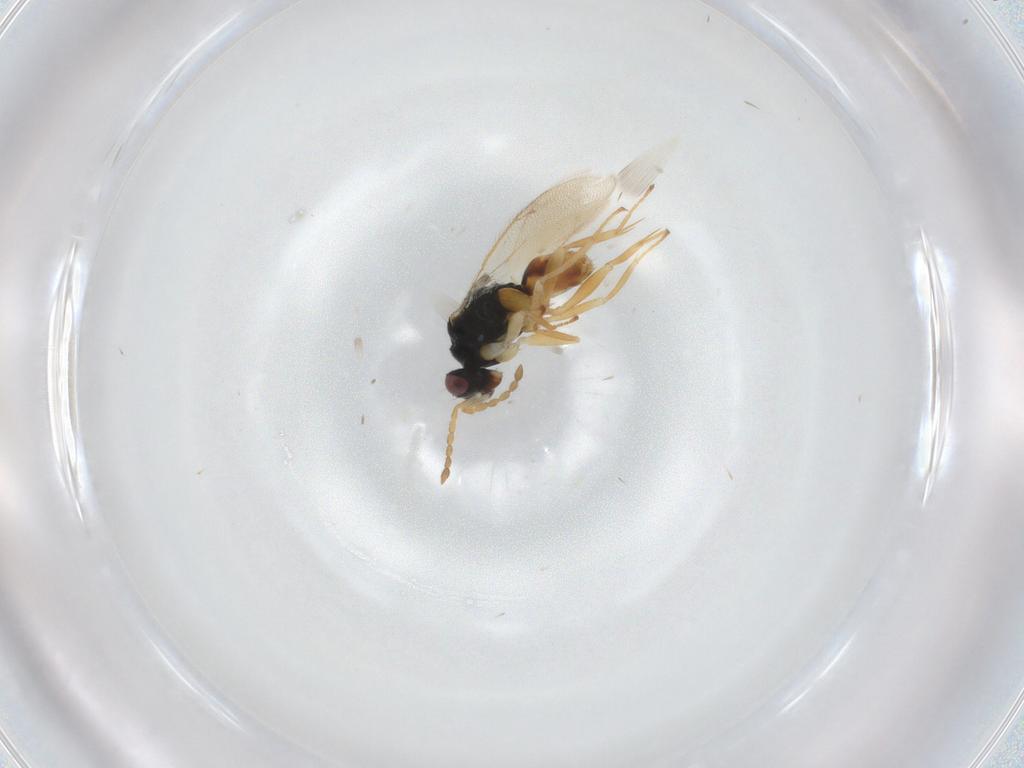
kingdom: Animalia
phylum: Arthropoda
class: Insecta
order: Hymenoptera
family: Eulophidae
